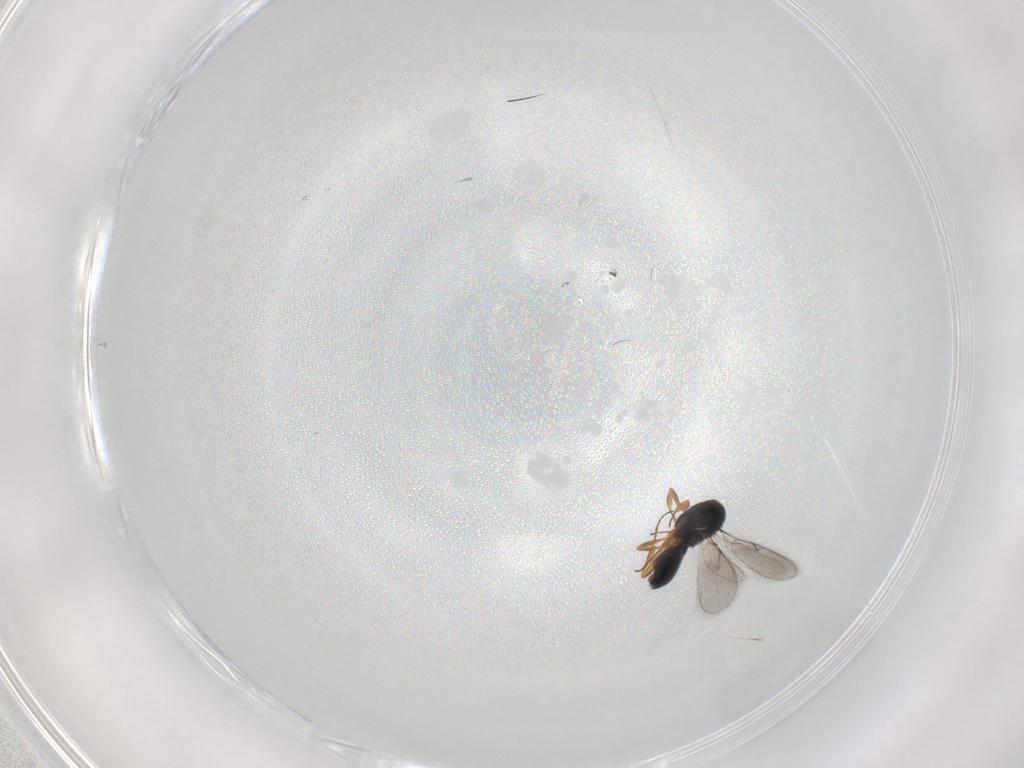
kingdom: Animalia
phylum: Arthropoda
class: Insecta
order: Hymenoptera
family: Scelionidae
